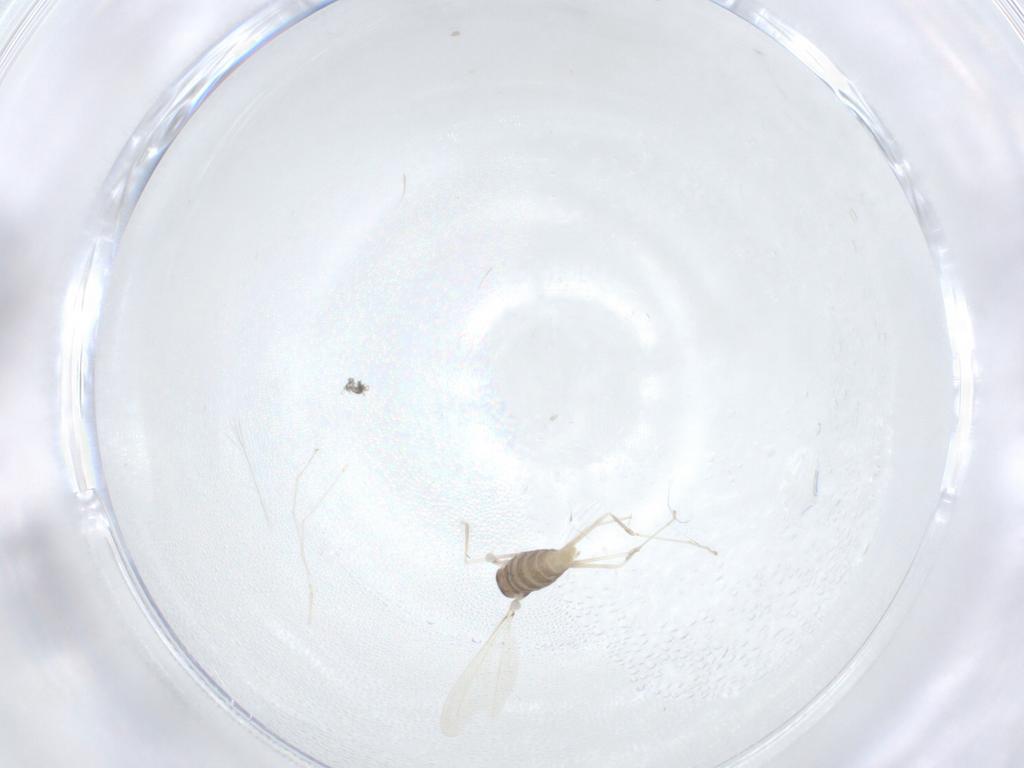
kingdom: Animalia
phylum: Arthropoda
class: Insecta
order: Diptera
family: Cecidomyiidae
